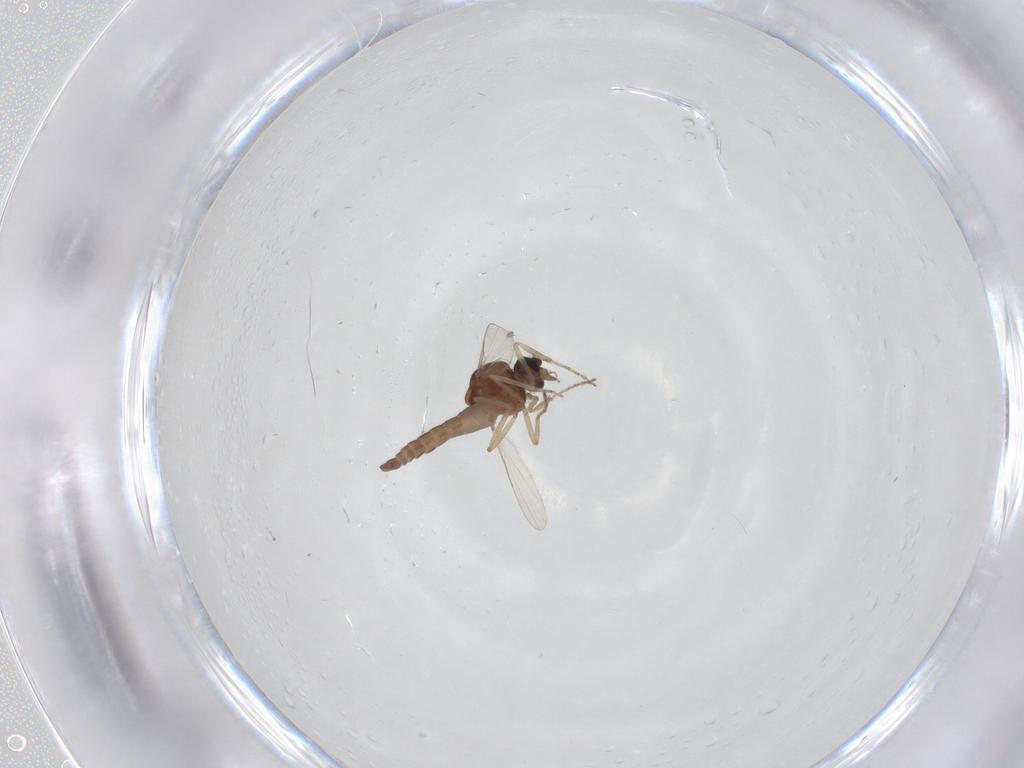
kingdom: Animalia
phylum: Arthropoda
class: Insecta
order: Diptera
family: Ceratopogonidae
